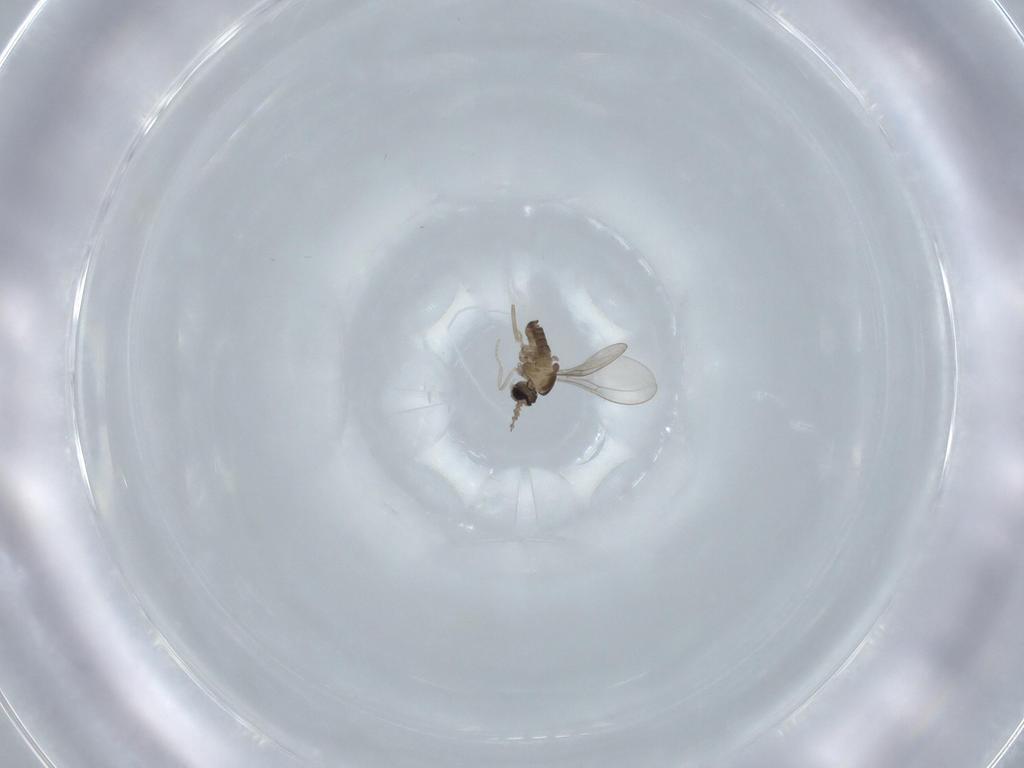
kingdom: Animalia
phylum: Arthropoda
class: Insecta
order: Diptera
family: Cecidomyiidae
